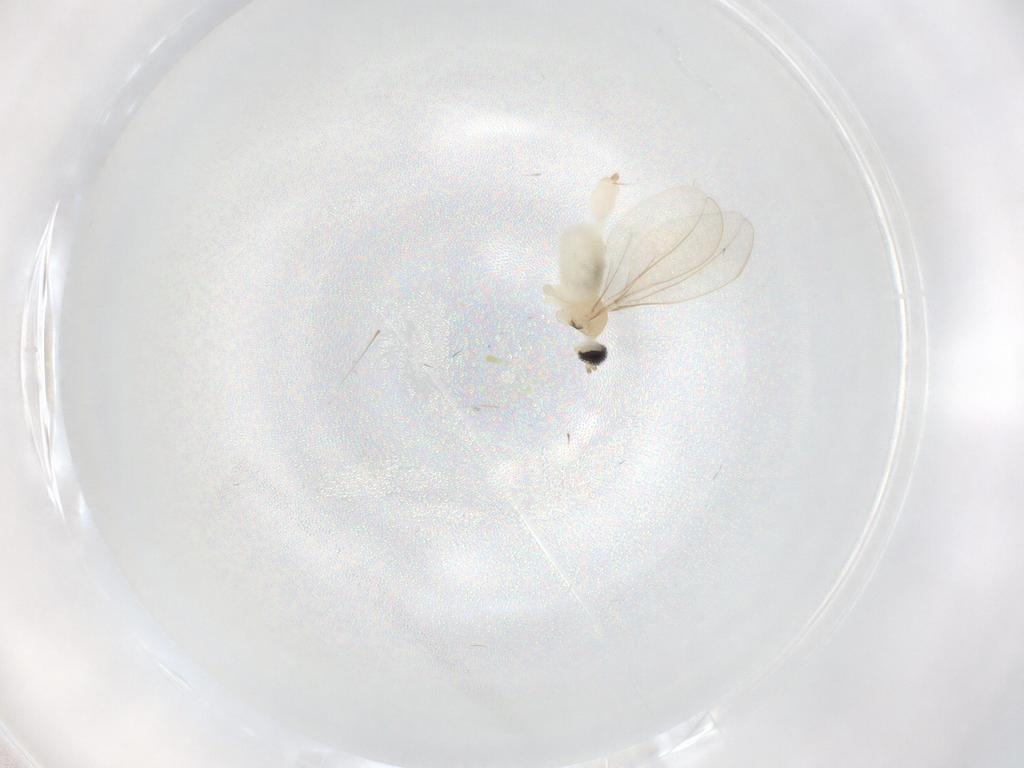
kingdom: Animalia
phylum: Arthropoda
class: Insecta
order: Diptera
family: Cecidomyiidae
